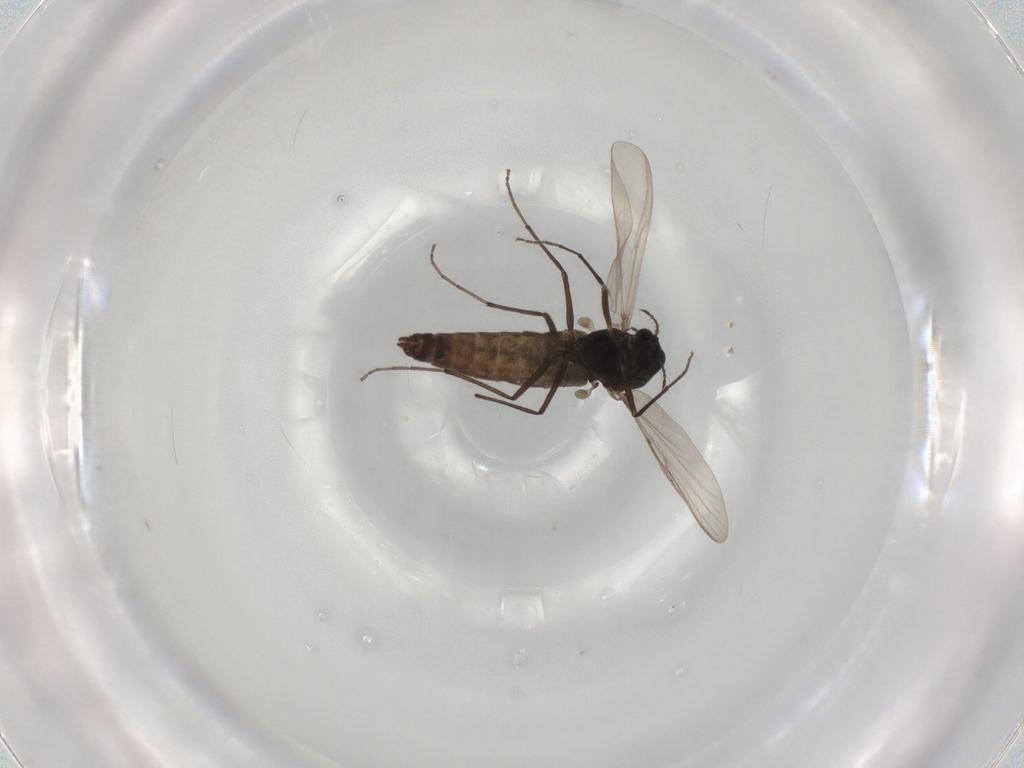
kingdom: Animalia
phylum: Arthropoda
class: Insecta
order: Diptera
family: Chironomidae
